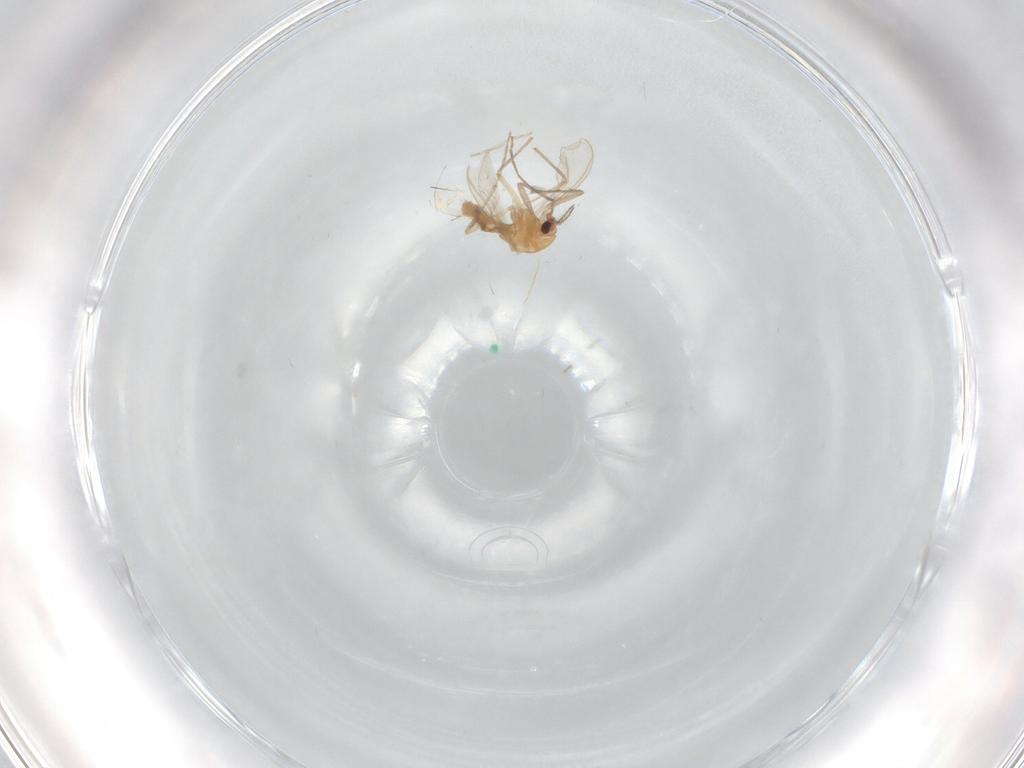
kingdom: Animalia
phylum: Arthropoda
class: Insecta
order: Diptera
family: Chironomidae
